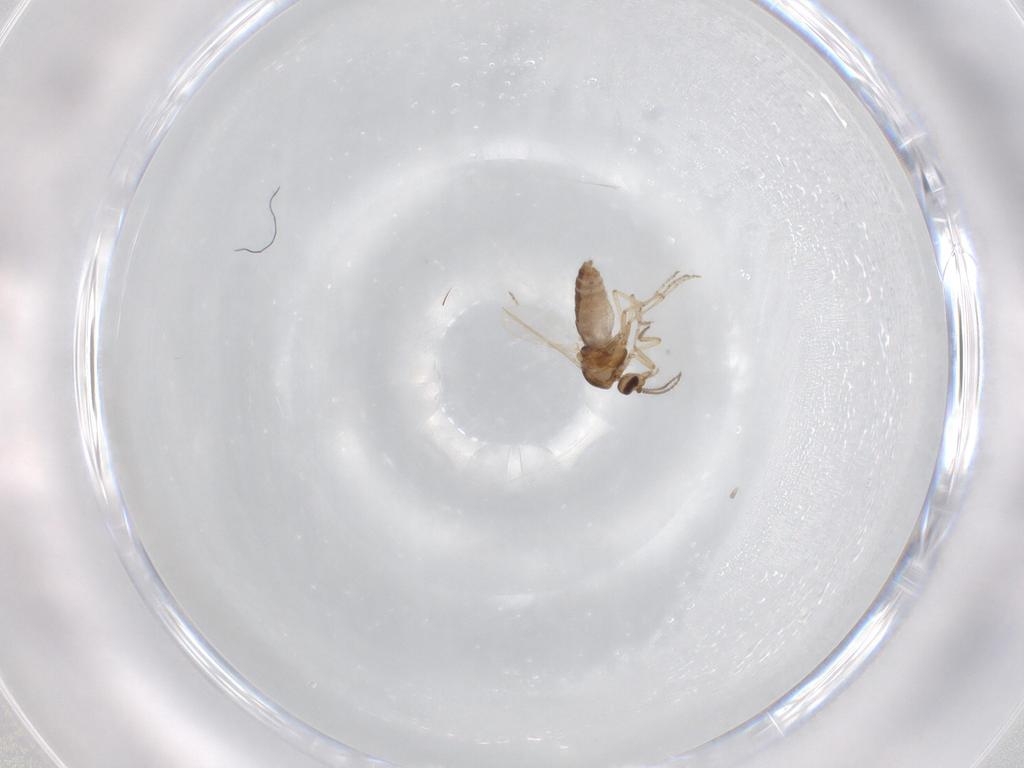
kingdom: Animalia
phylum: Arthropoda
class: Insecta
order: Diptera
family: Ceratopogonidae
